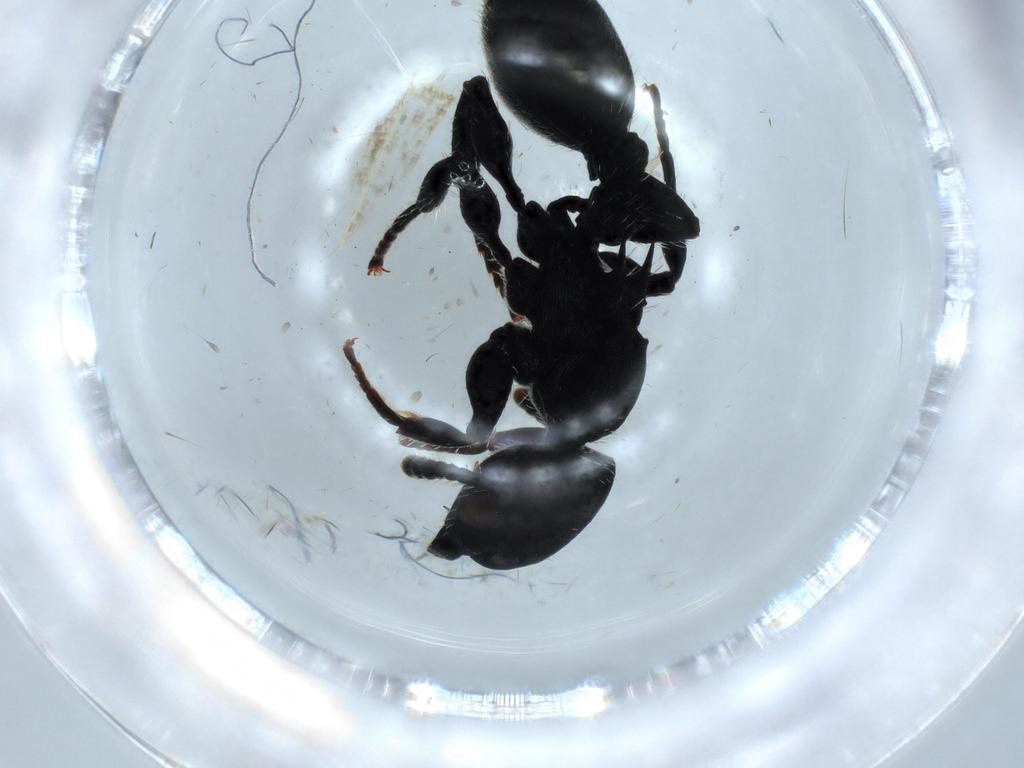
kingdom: Animalia
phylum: Arthropoda
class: Insecta
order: Hymenoptera
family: Formicidae
